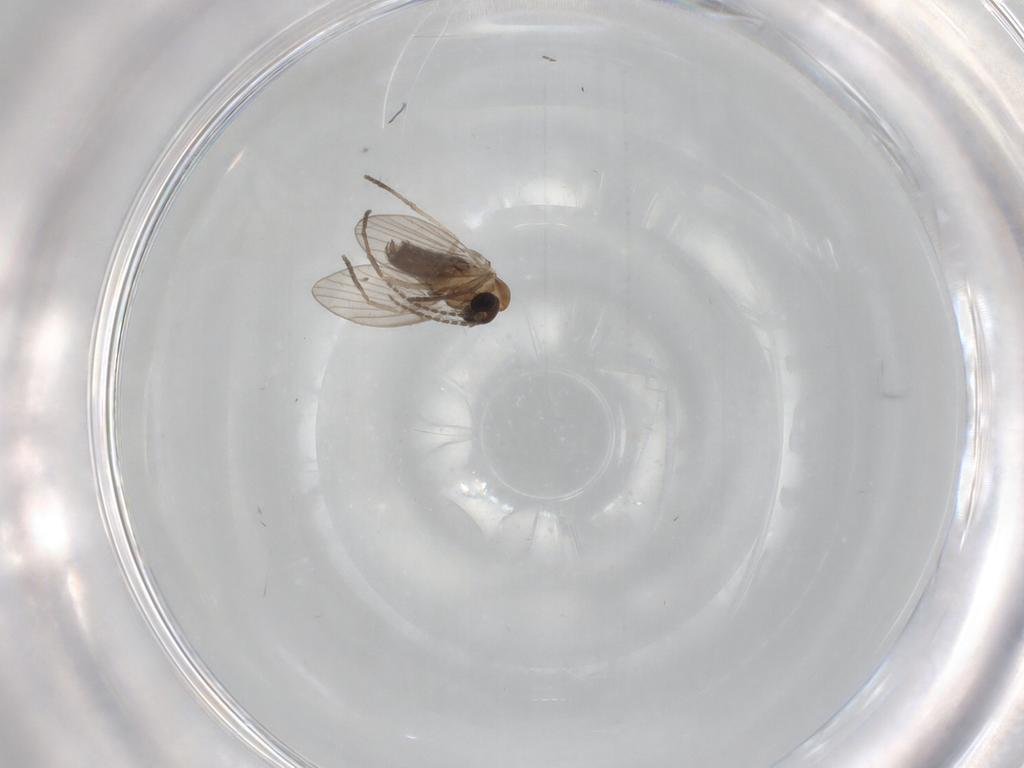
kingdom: Animalia
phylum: Arthropoda
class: Insecta
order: Diptera
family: Psychodidae
